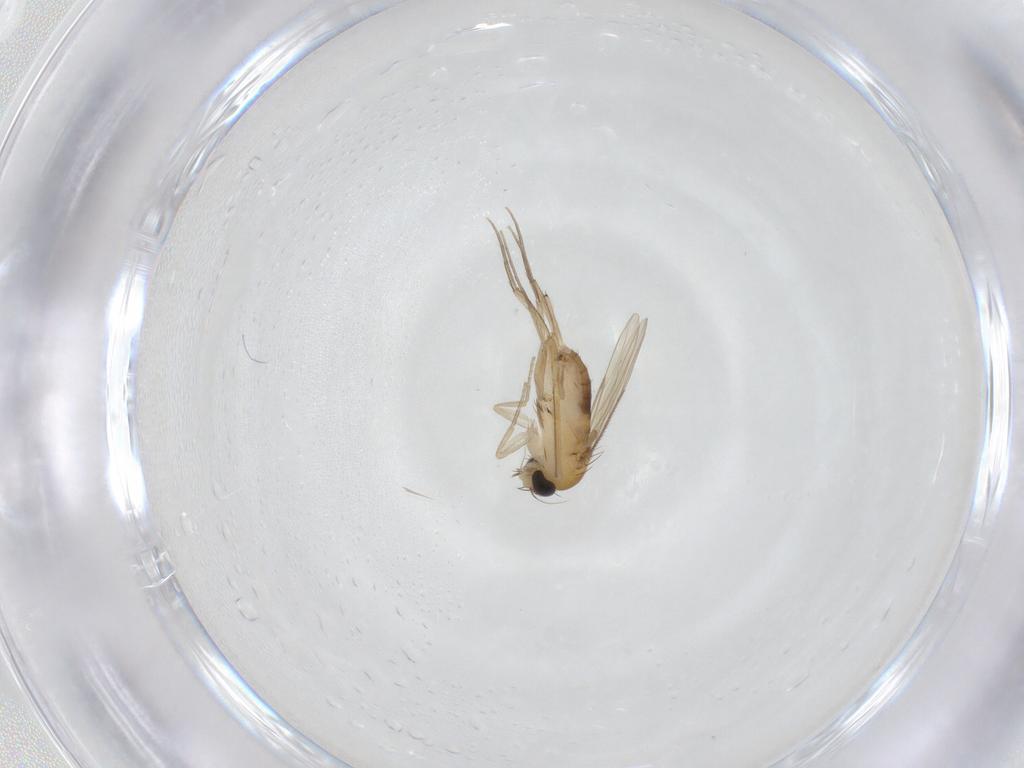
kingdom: Animalia
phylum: Arthropoda
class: Insecta
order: Diptera
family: Phoridae
